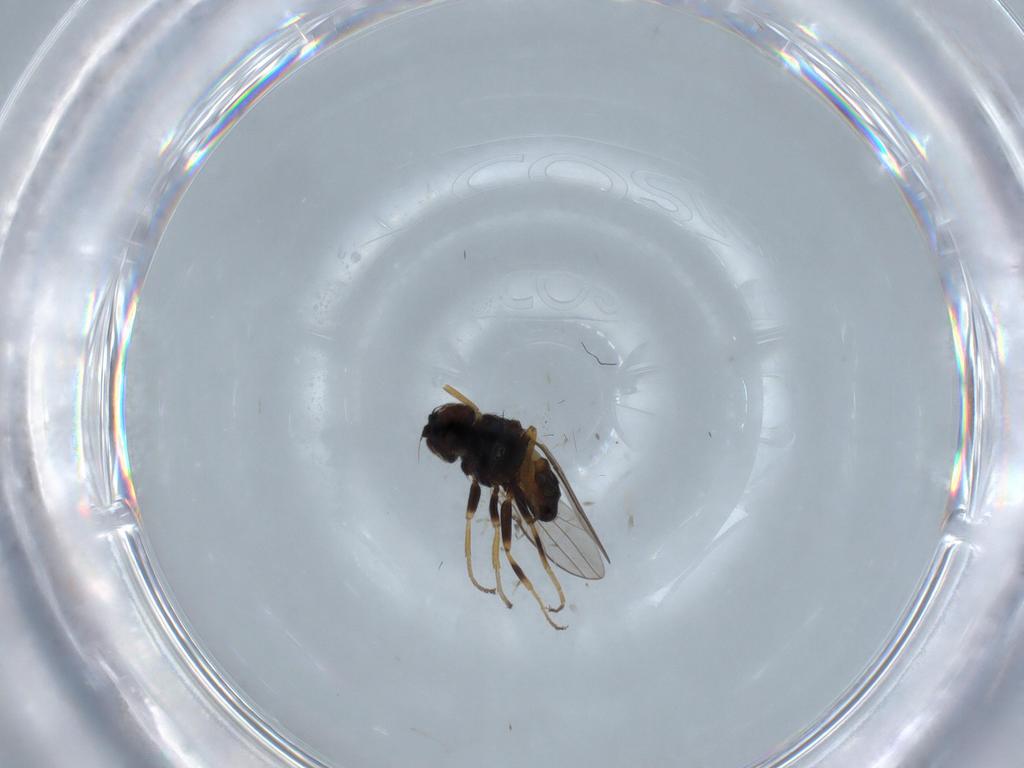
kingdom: Animalia
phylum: Arthropoda
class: Insecta
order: Diptera
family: Chloropidae
